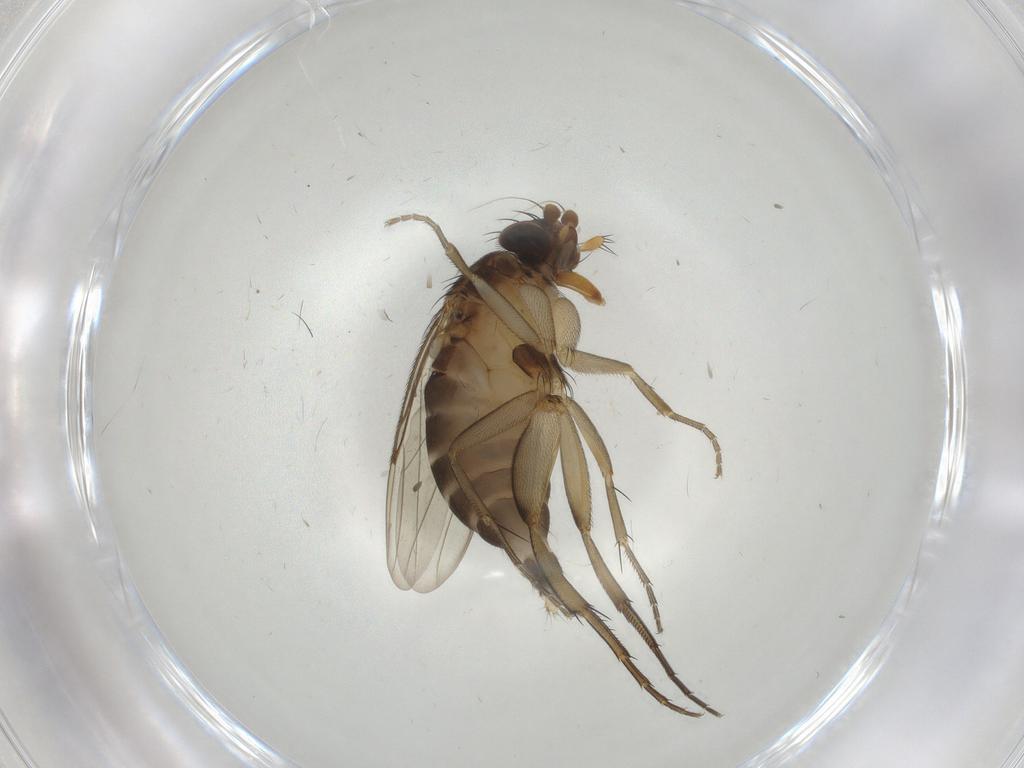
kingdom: Animalia
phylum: Arthropoda
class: Insecta
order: Diptera
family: Phoridae
